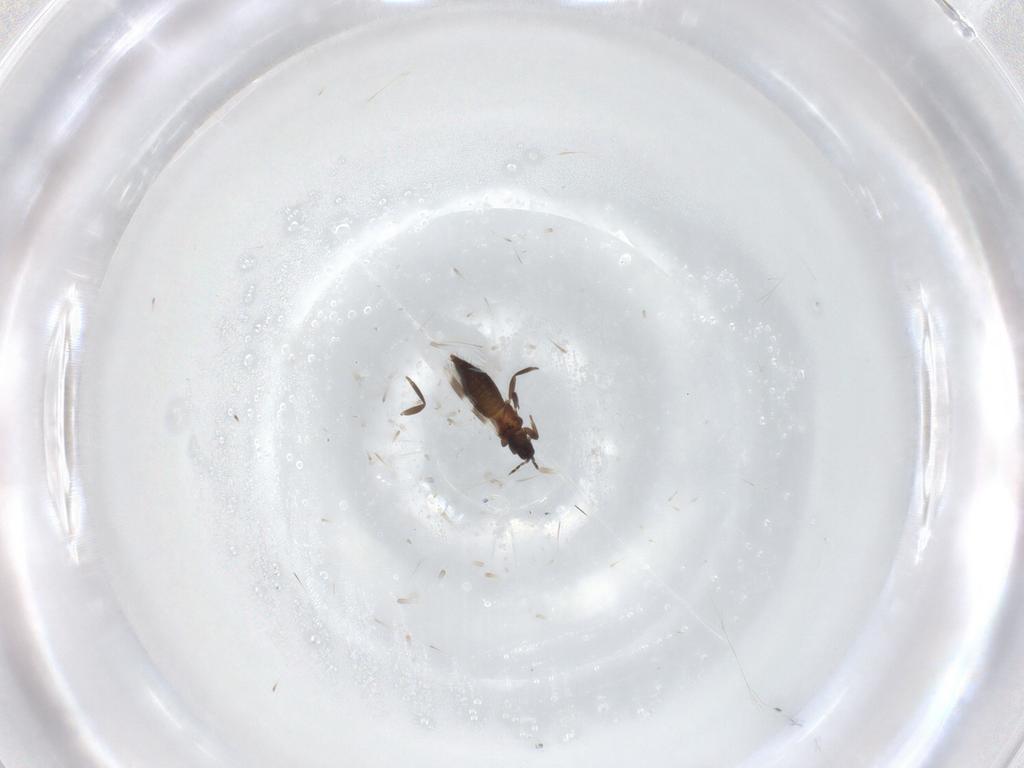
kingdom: Animalia
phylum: Arthropoda
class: Insecta
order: Thysanoptera
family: Aeolothripidae
